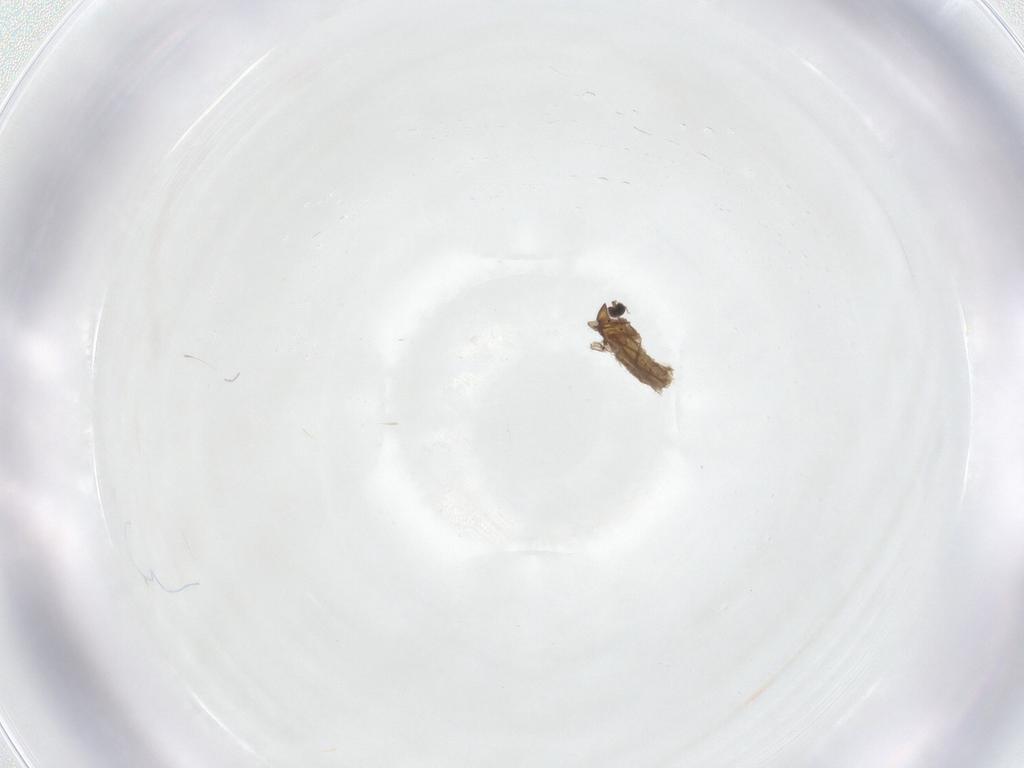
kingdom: Animalia
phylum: Arthropoda
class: Insecta
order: Diptera
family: Chironomidae
